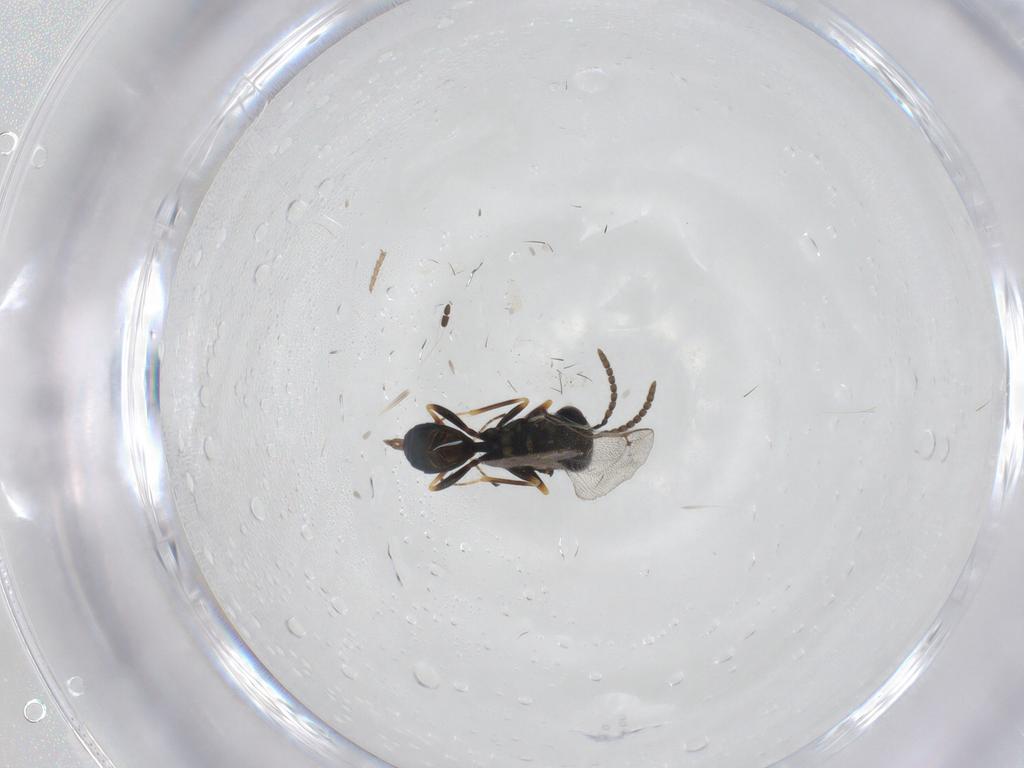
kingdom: Animalia
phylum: Arthropoda
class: Insecta
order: Hymenoptera
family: Pteromalidae
